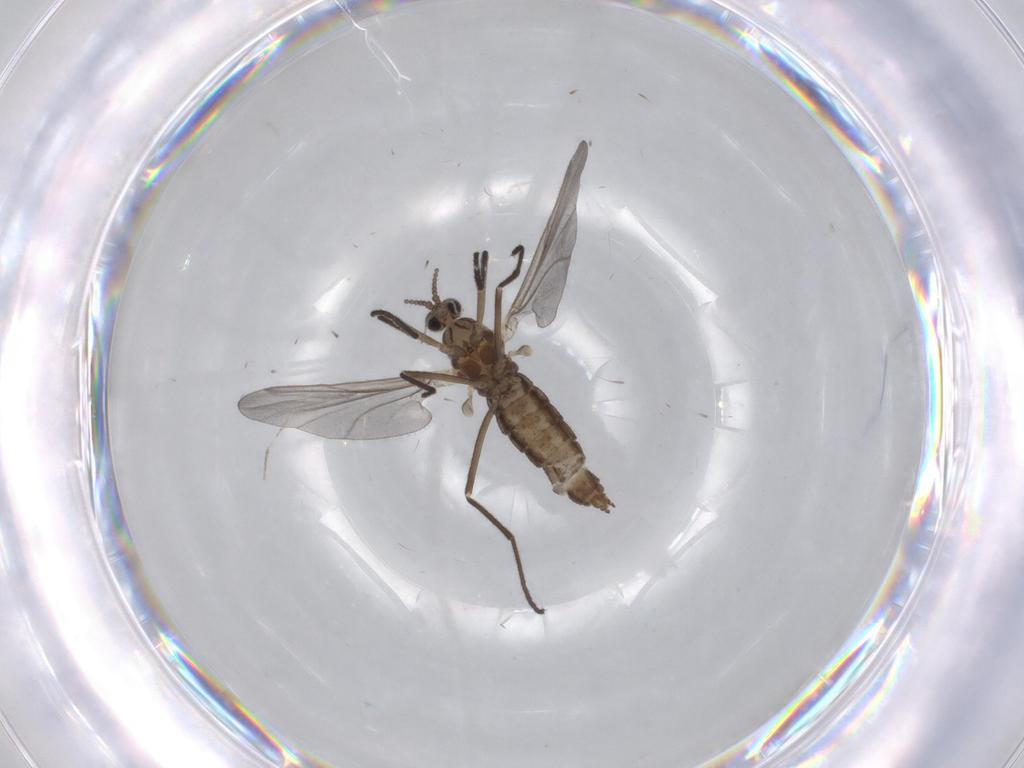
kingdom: Animalia
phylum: Arthropoda
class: Insecta
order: Diptera
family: Cecidomyiidae
